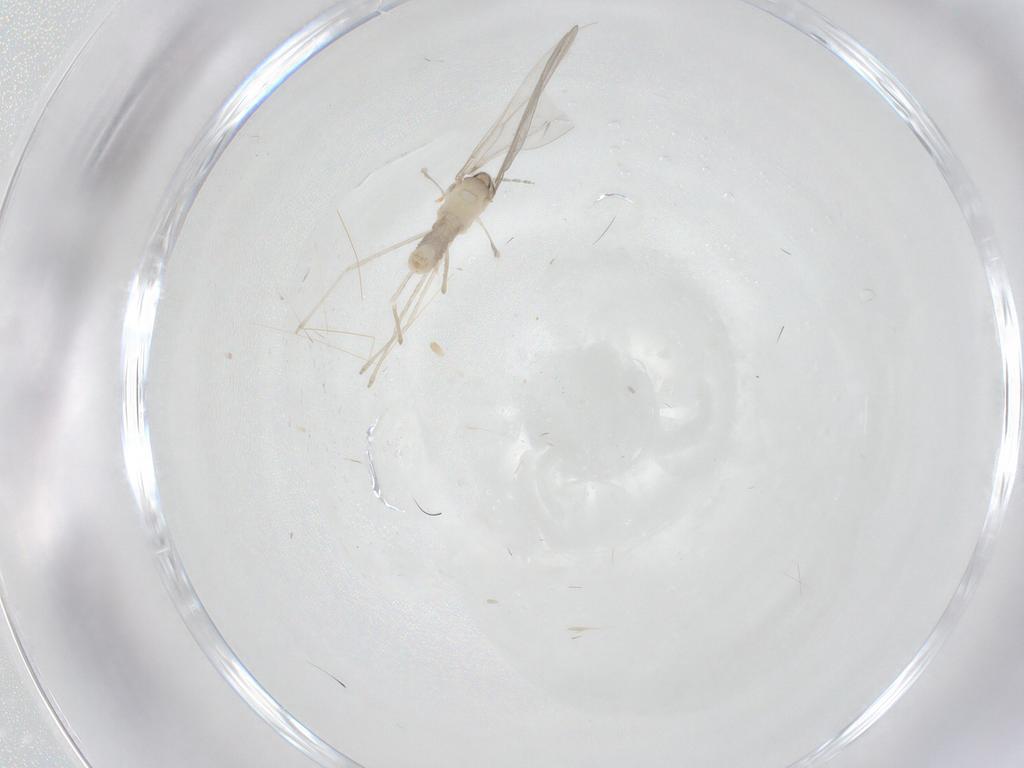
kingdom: Animalia
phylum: Arthropoda
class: Insecta
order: Diptera
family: Cecidomyiidae
